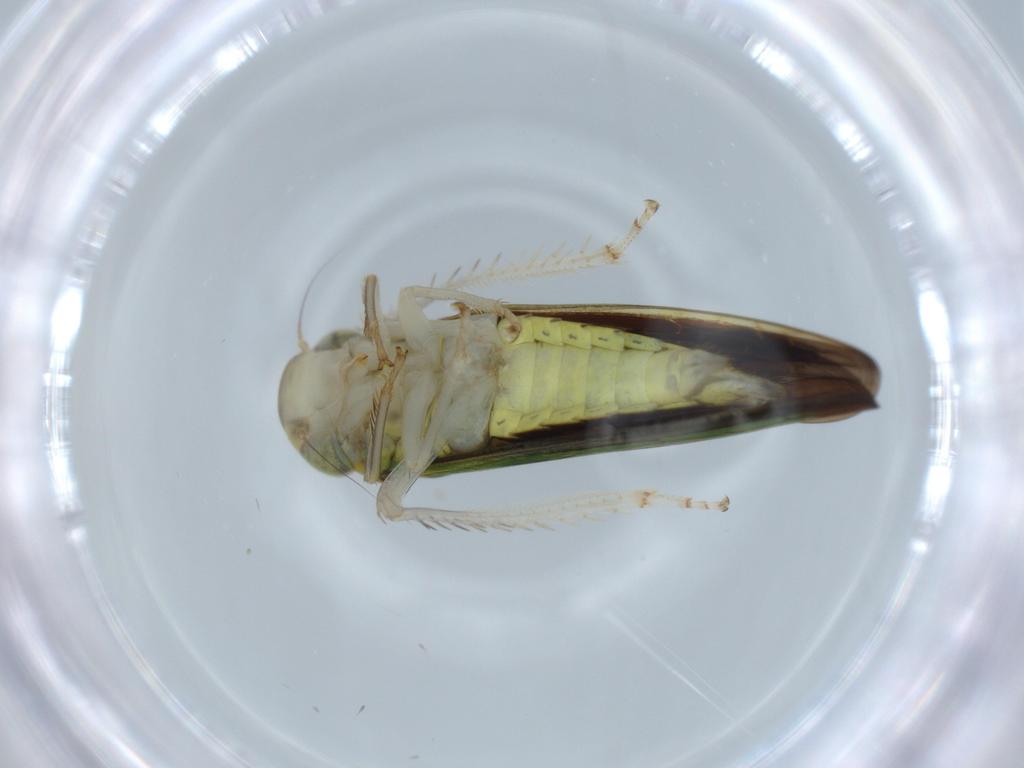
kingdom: Animalia
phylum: Arthropoda
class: Insecta
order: Hemiptera
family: Cicadellidae
